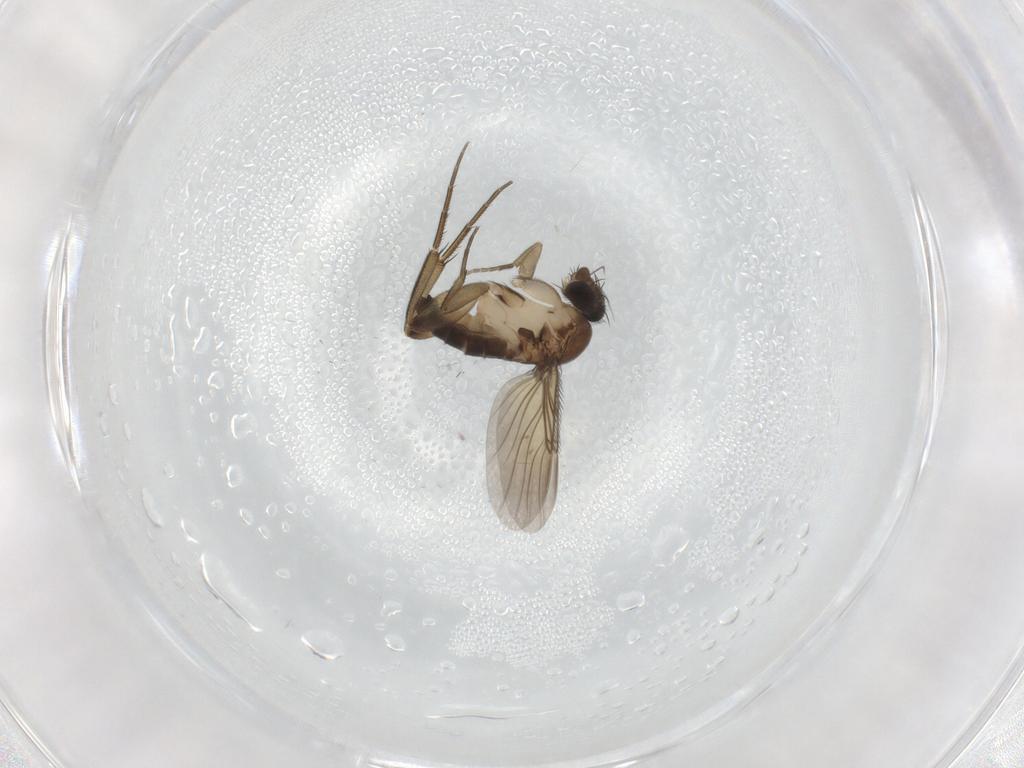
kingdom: Animalia
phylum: Arthropoda
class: Insecta
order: Diptera
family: Phoridae
